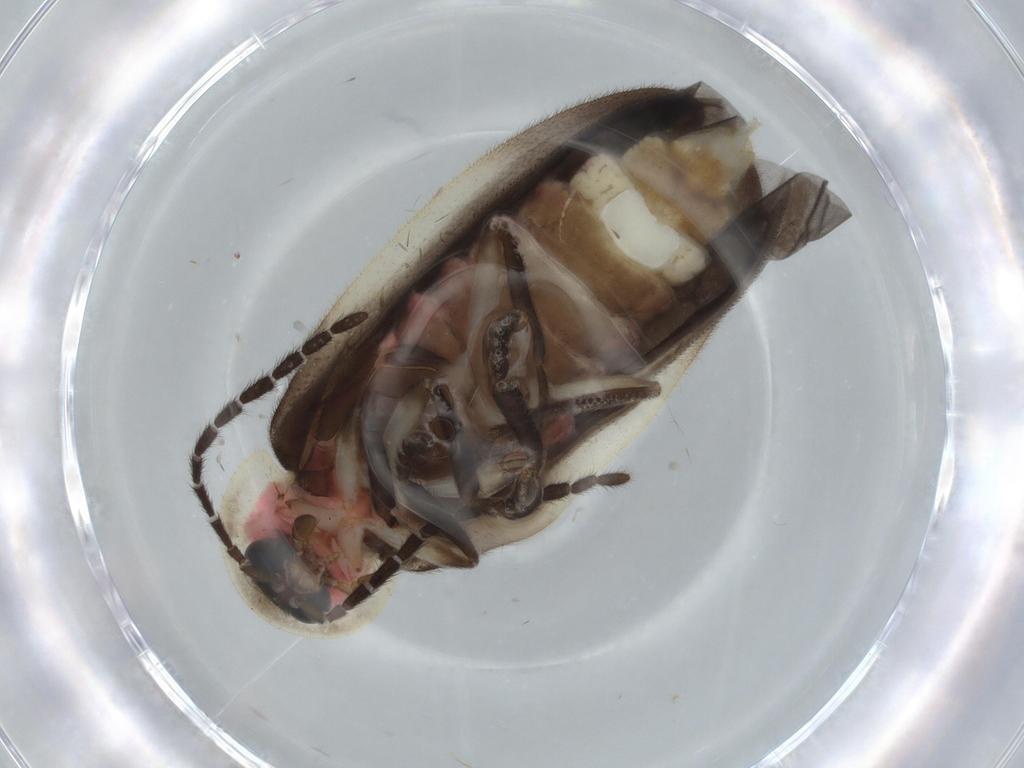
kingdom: Animalia
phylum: Arthropoda
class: Insecta
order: Coleoptera
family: Lampyridae
